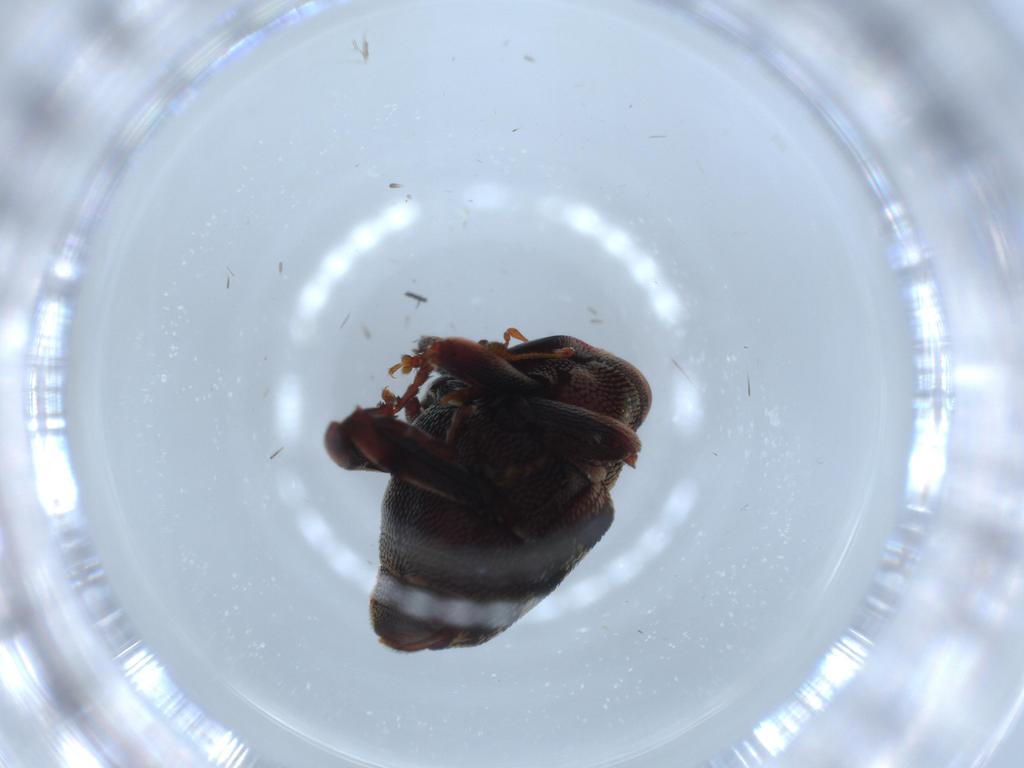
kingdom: Animalia
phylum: Arthropoda
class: Insecta
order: Coleoptera
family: Curculionidae
